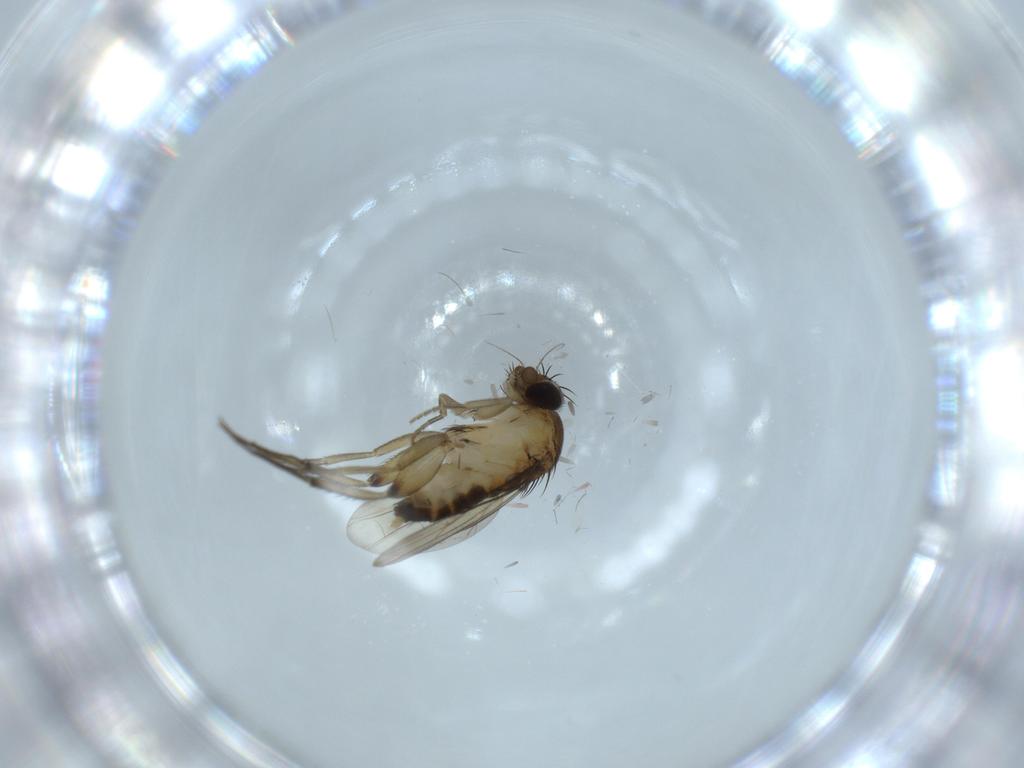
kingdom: Animalia
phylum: Arthropoda
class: Insecta
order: Diptera
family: Phoridae
